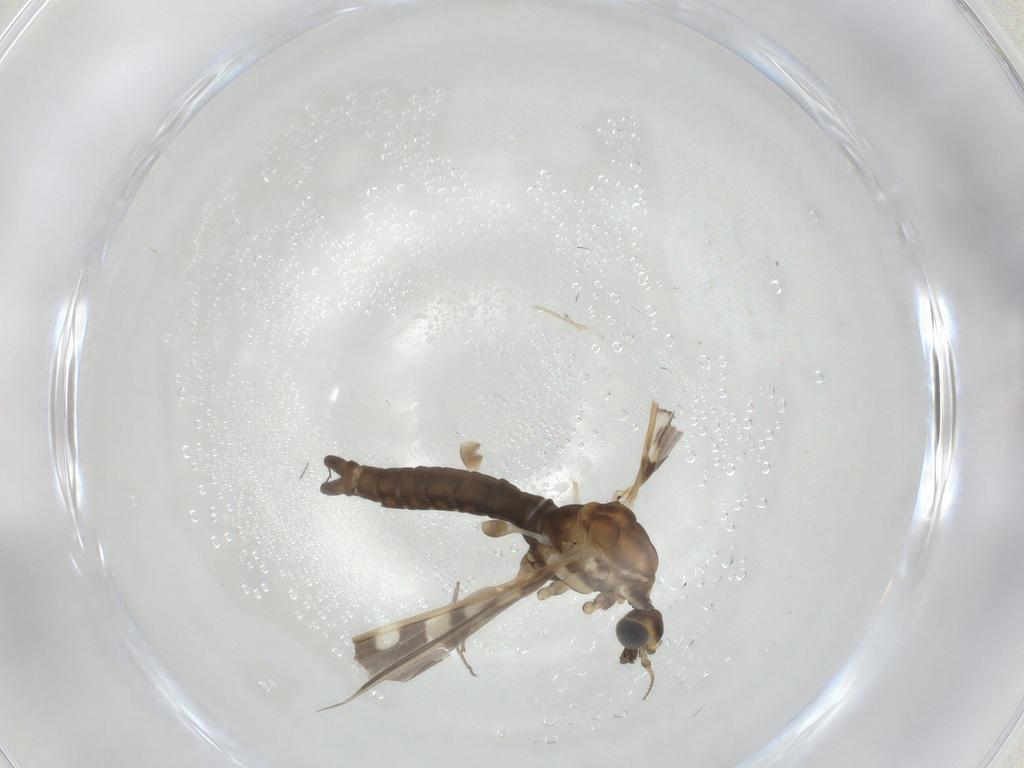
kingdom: Animalia
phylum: Arthropoda
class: Insecta
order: Diptera
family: Limoniidae
